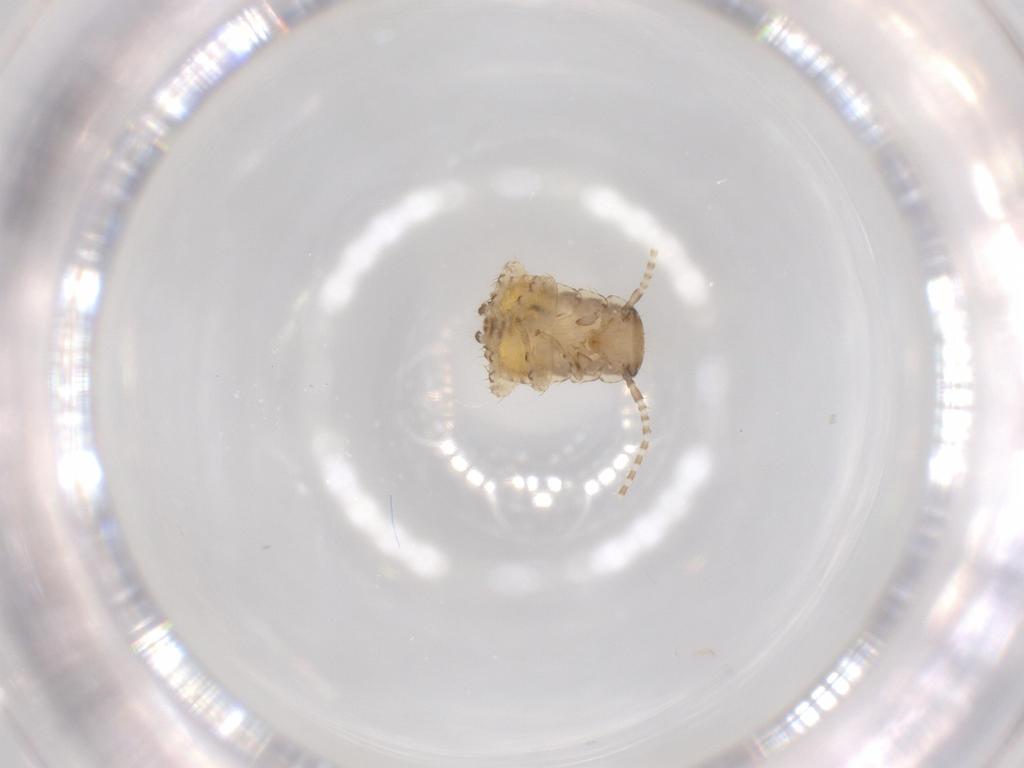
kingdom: Animalia
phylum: Arthropoda
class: Insecta
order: Blattodea
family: Ectobiidae
